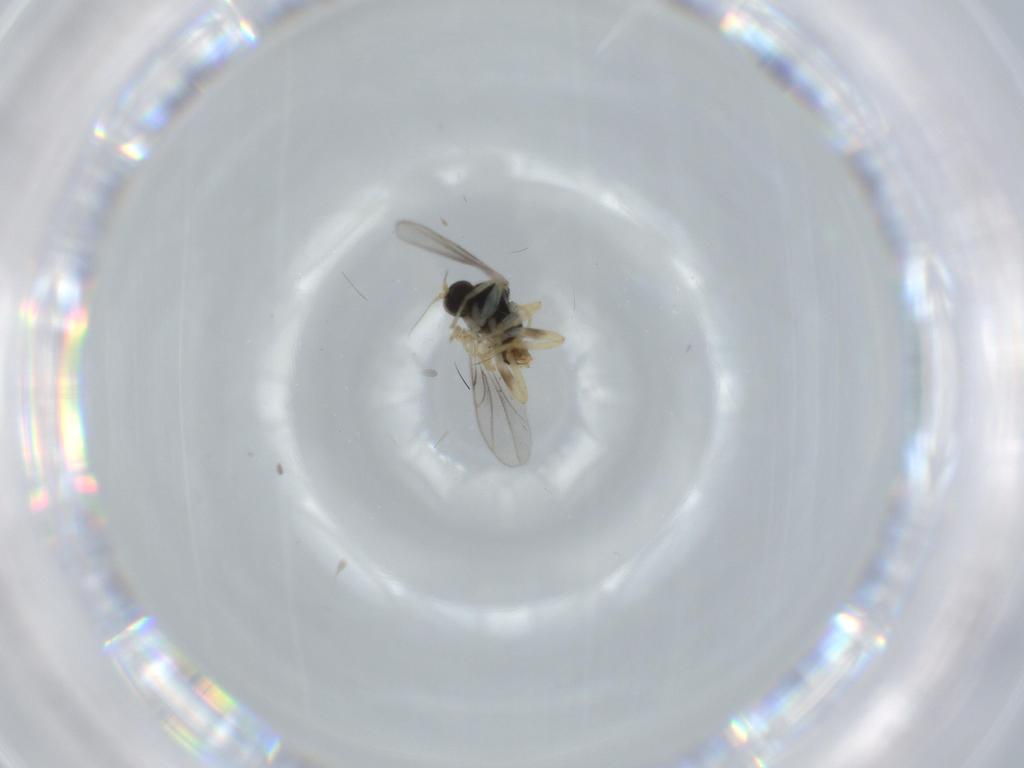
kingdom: Animalia
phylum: Arthropoda
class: Insecta
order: Diptera
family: Hybotidae
